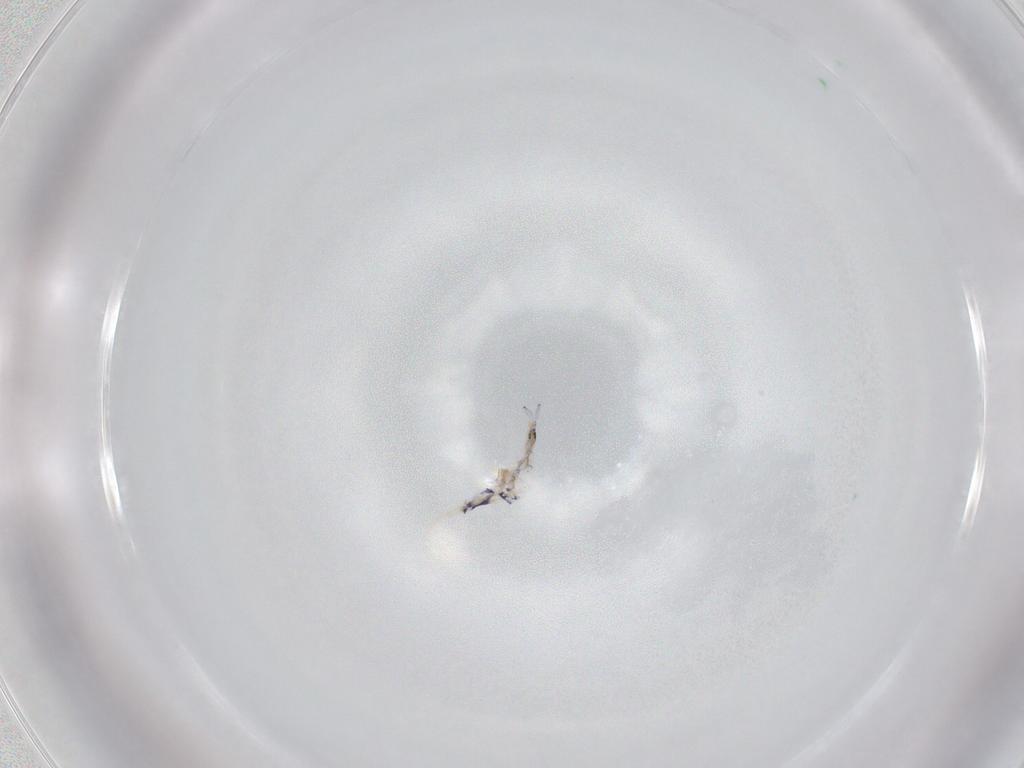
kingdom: Animalia
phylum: Arthropoda
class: Collembola
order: Entomobryomorpha
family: Entomobryidae
